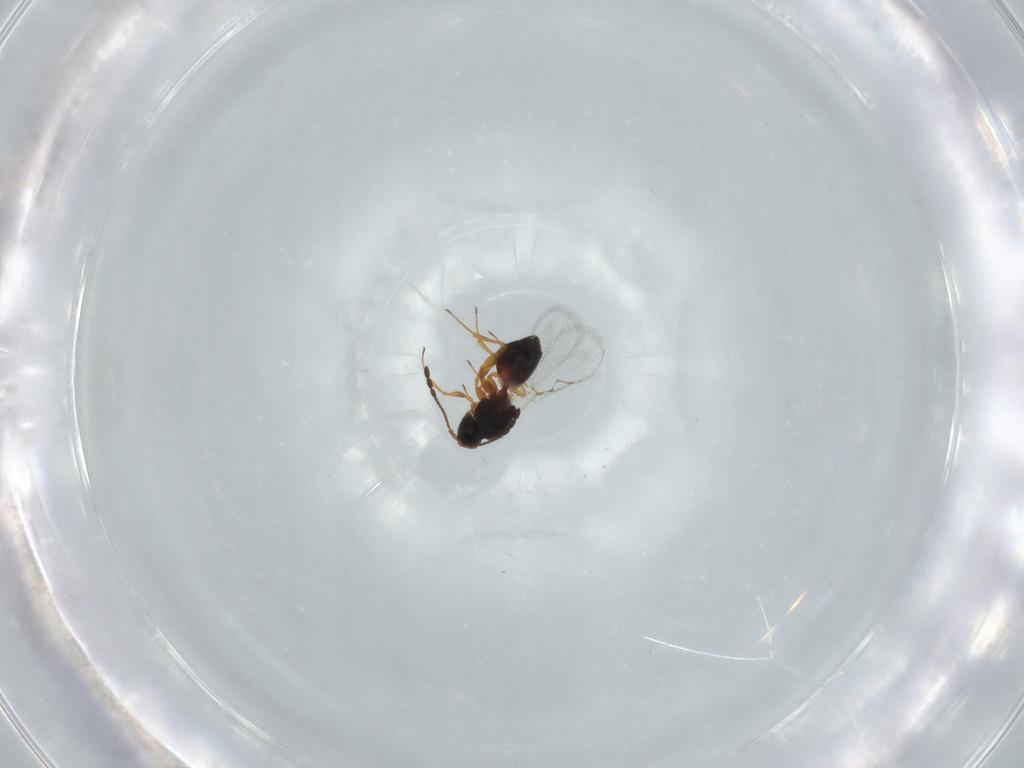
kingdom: Animalia
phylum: Arthropoda
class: Insecta
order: Hymenoptera
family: Figitidae
